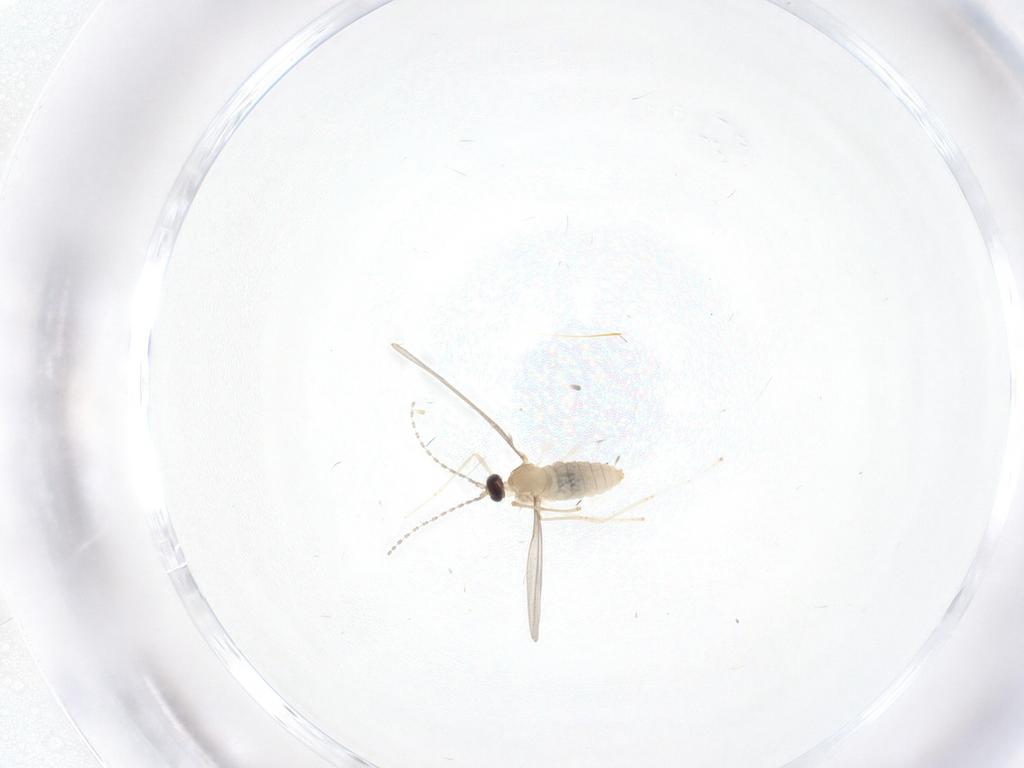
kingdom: Animalia
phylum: Arthropoda
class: Insecta
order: Diptera
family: Cecidomyiidae
